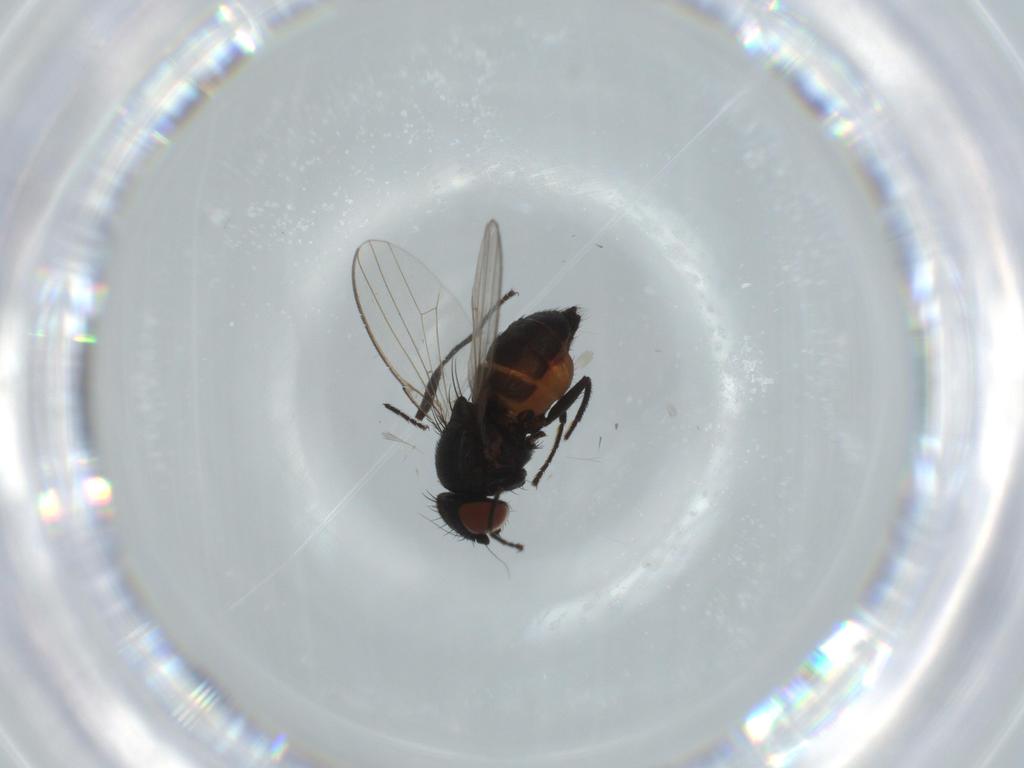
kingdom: Animalia
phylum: Arthropoda
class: Insecta
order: Diptera
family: Milichiidae
